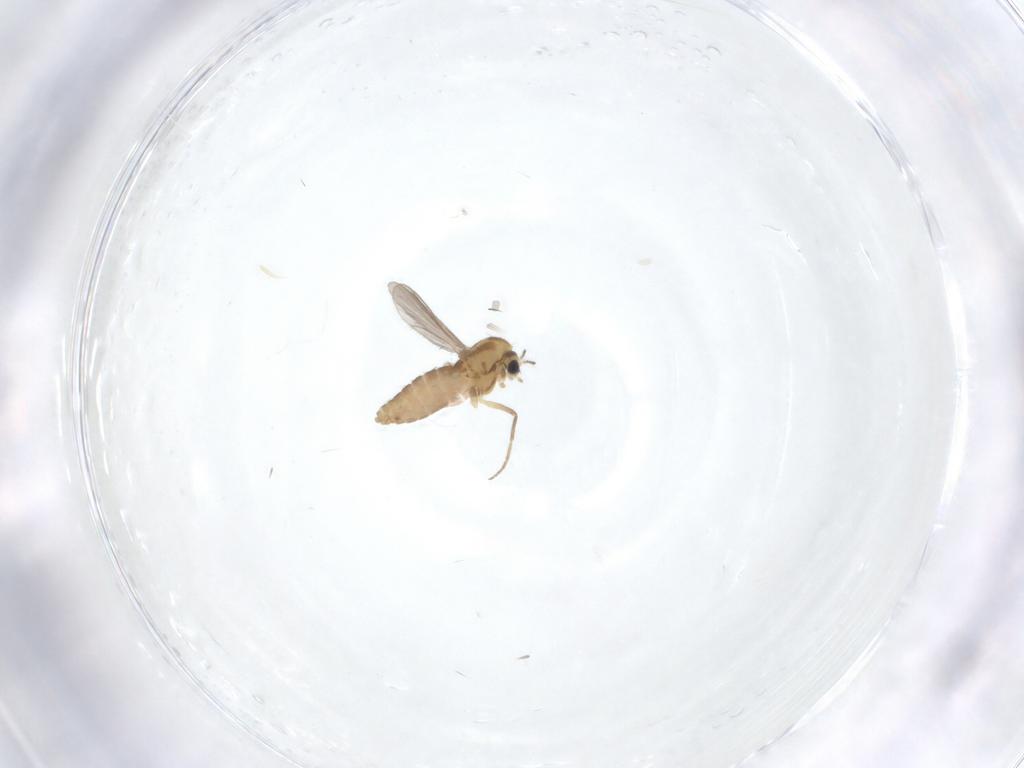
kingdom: Animalia
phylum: Arthropoda
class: Insecta
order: Diptera
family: Chironomidae
